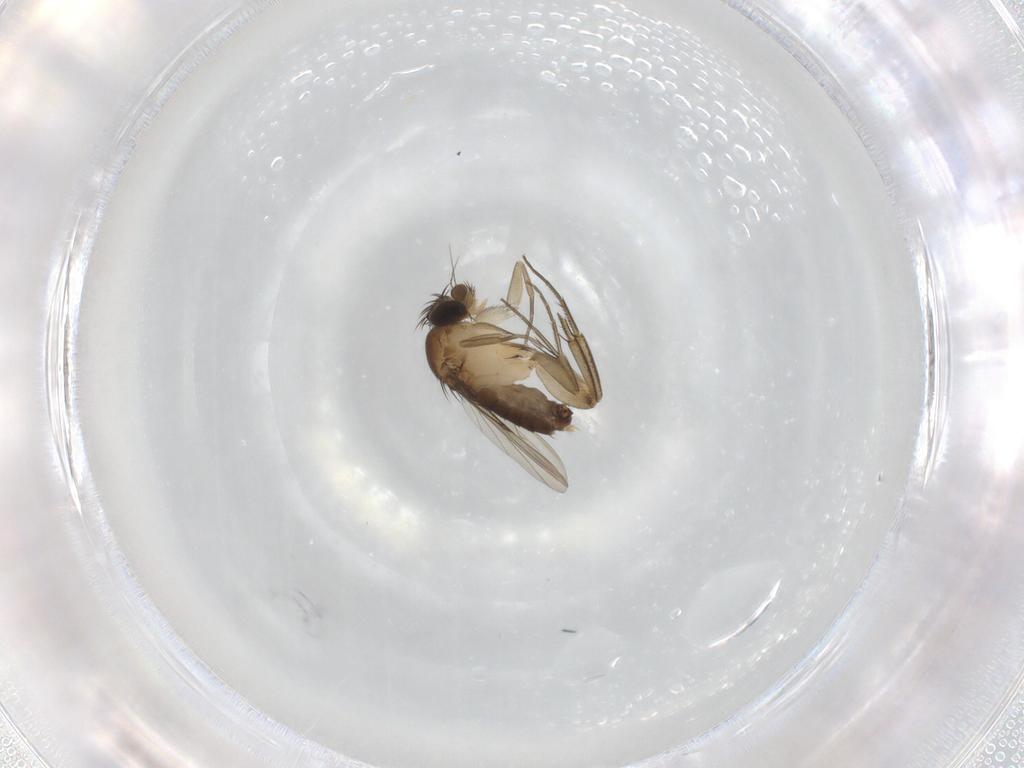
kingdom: Animalia
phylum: Arthropoda
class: Insecta
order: Diptera
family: Phoridae
